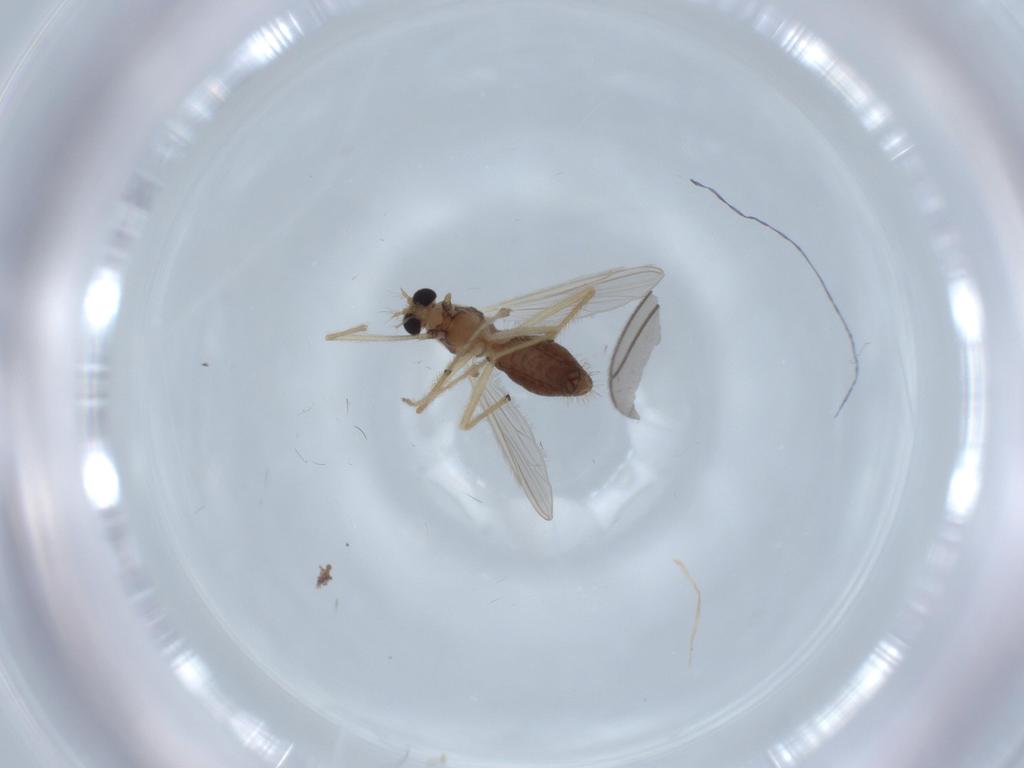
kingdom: Animalia
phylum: Arthropoda
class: Insecta
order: Diptera
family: Chironomidae
